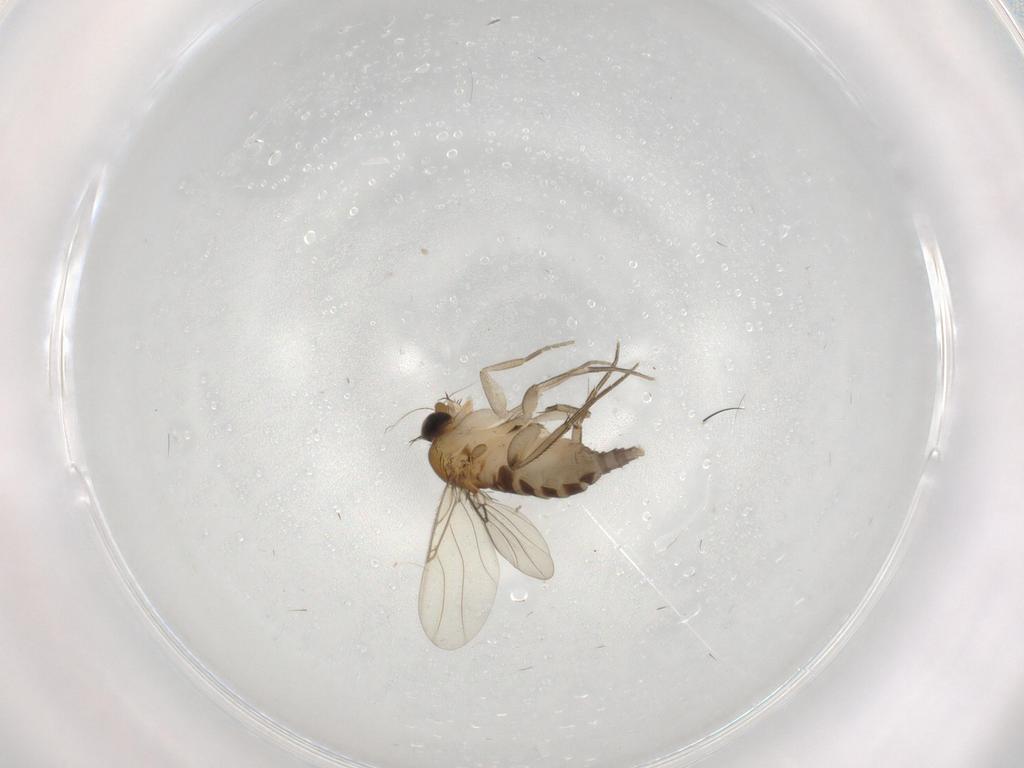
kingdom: Animalia
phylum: Arthropoda
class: Insecta
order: Diptera
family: Phoridae
